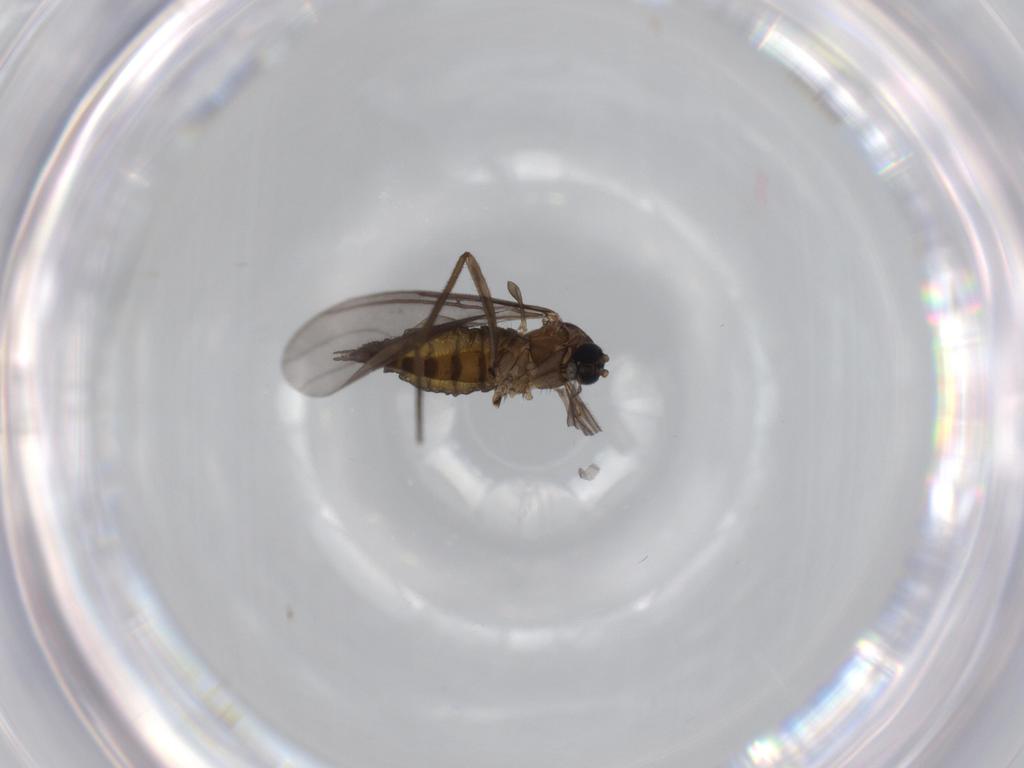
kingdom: Animalia
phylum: Arthropoda
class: Insecta
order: Diptera
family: Sciaridae
